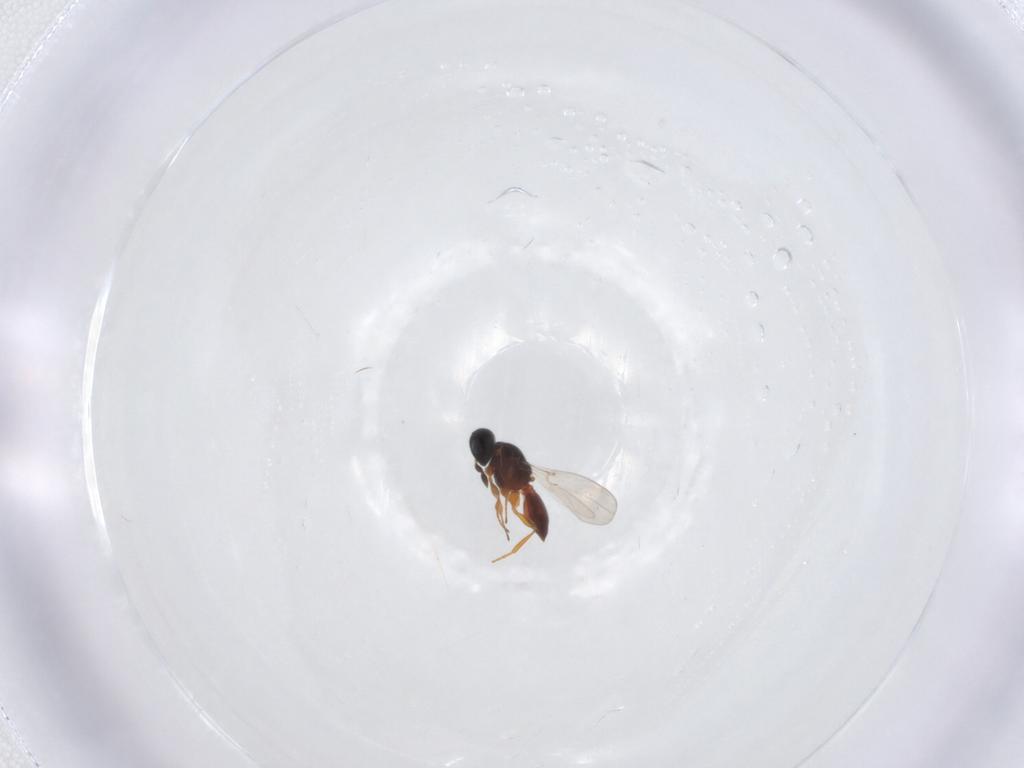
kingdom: Animalia
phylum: Arthropoda
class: Insecta
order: Hymenoptera
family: Platygastridae
